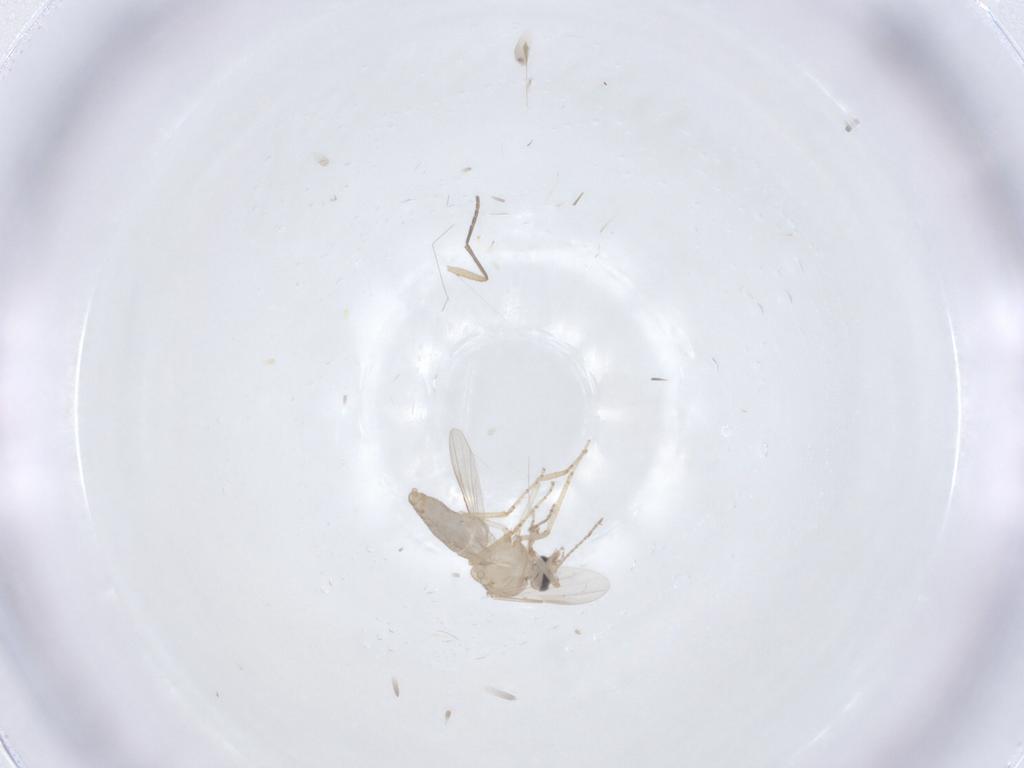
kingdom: Animalia
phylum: Arthropoda
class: Insecta
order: Diptera
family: Ceratopogonidae
